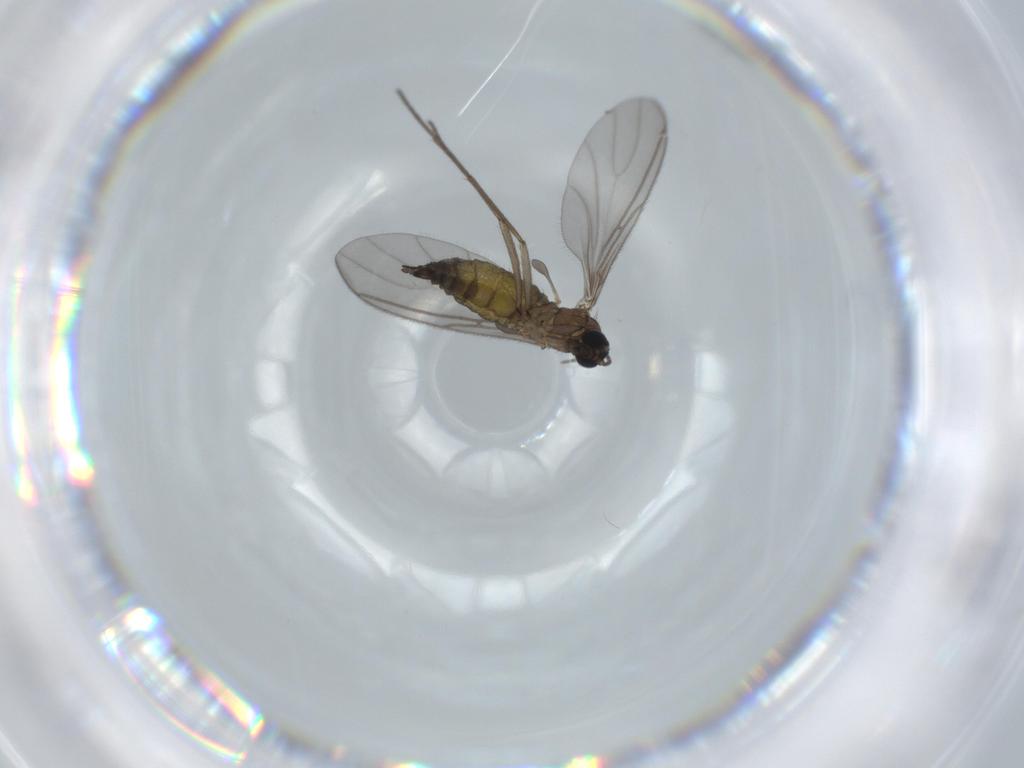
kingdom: Animalia
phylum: Arthropoda
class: Insecta
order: Diptera
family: Sciaridae
